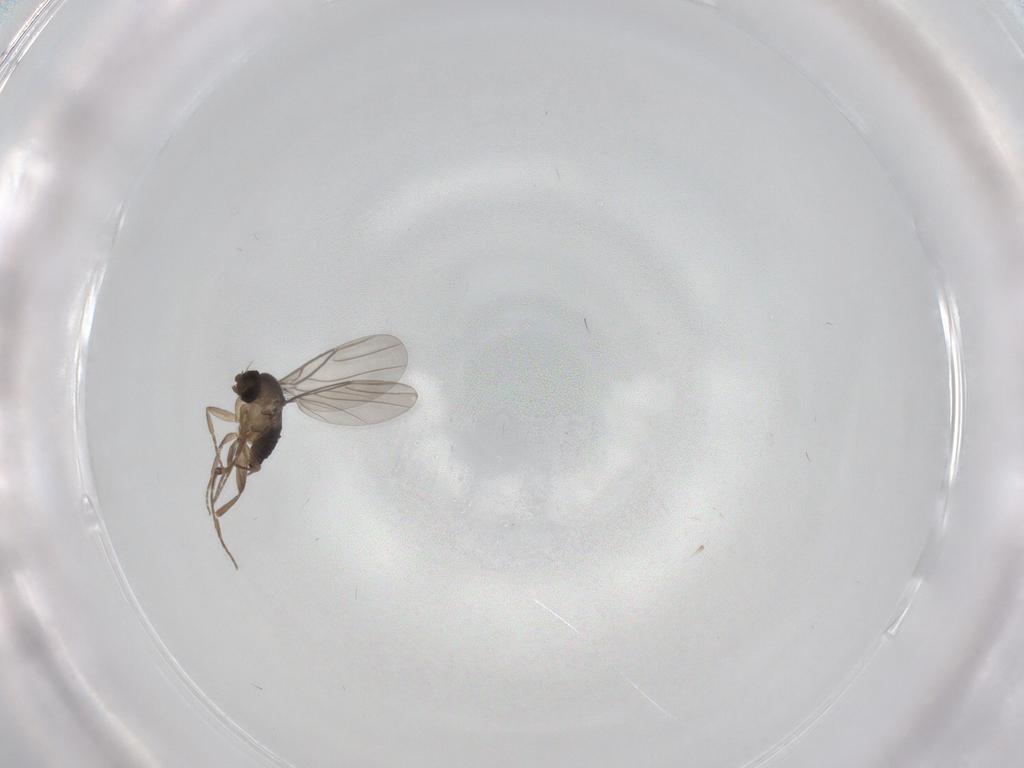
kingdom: Animalia
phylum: Arthropoda
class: Insecta
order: Diptera
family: Phoridae
